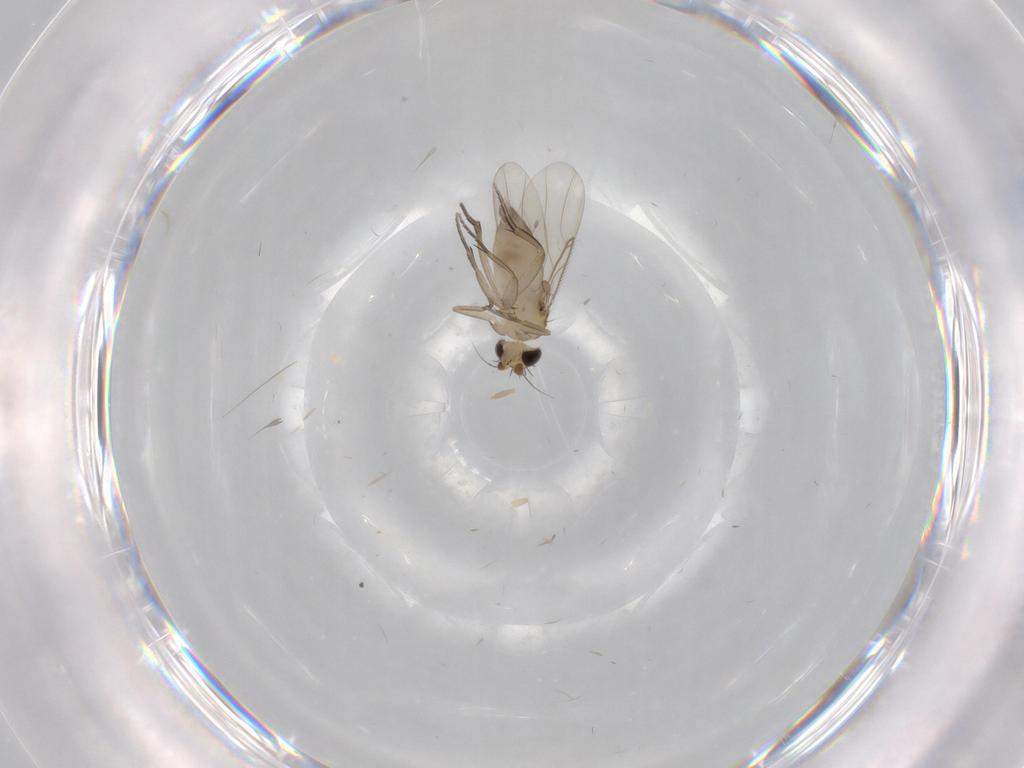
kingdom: Animalia
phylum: Arthropoda
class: Insecta
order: Diptera
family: Phoridae
